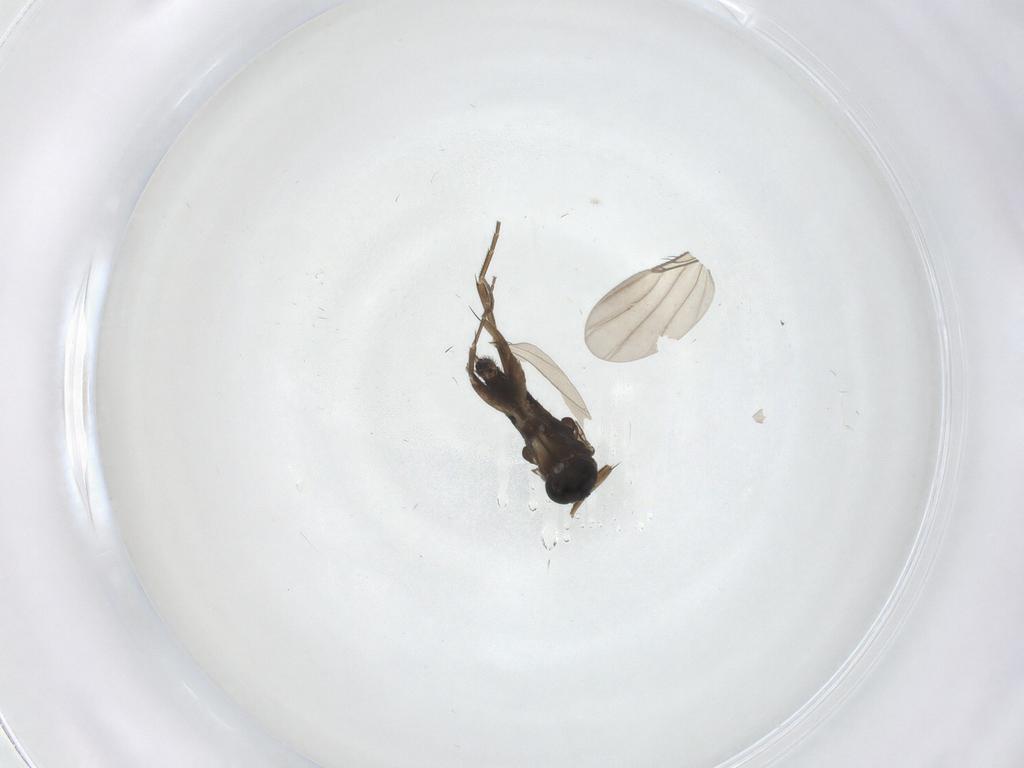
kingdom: Animalia
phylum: Arthropoda
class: Insecta
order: Diptera
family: Phoridae
